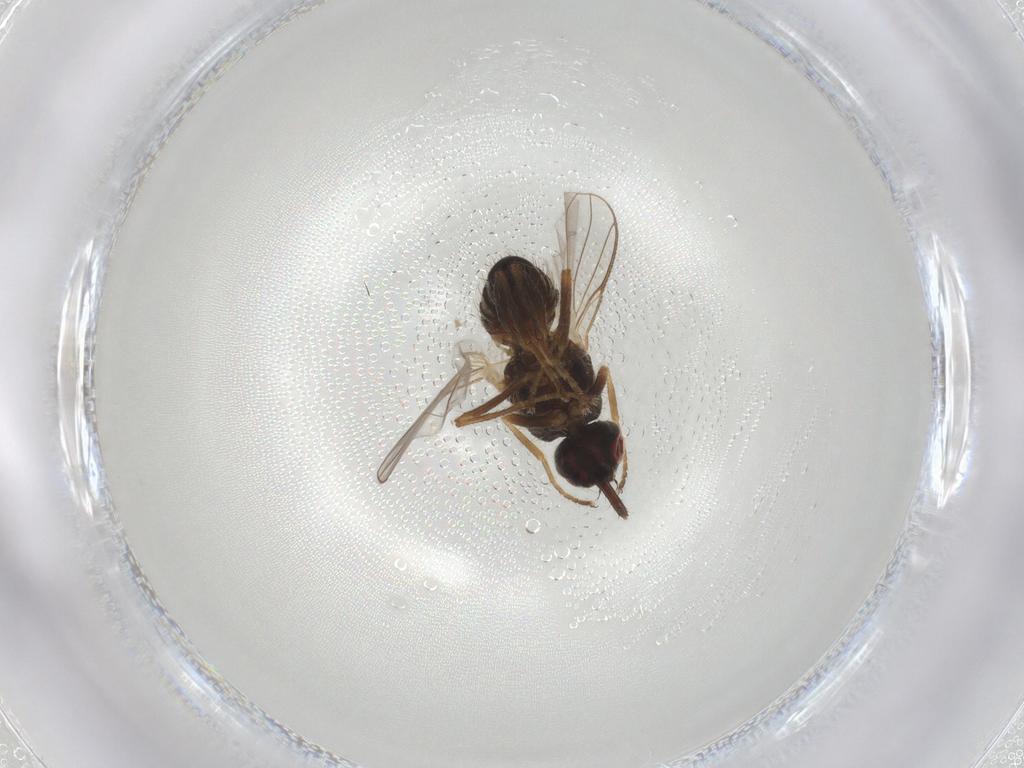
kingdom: Animalia
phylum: Arthropoda
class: Insecta
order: Diptera
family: Muscidae
